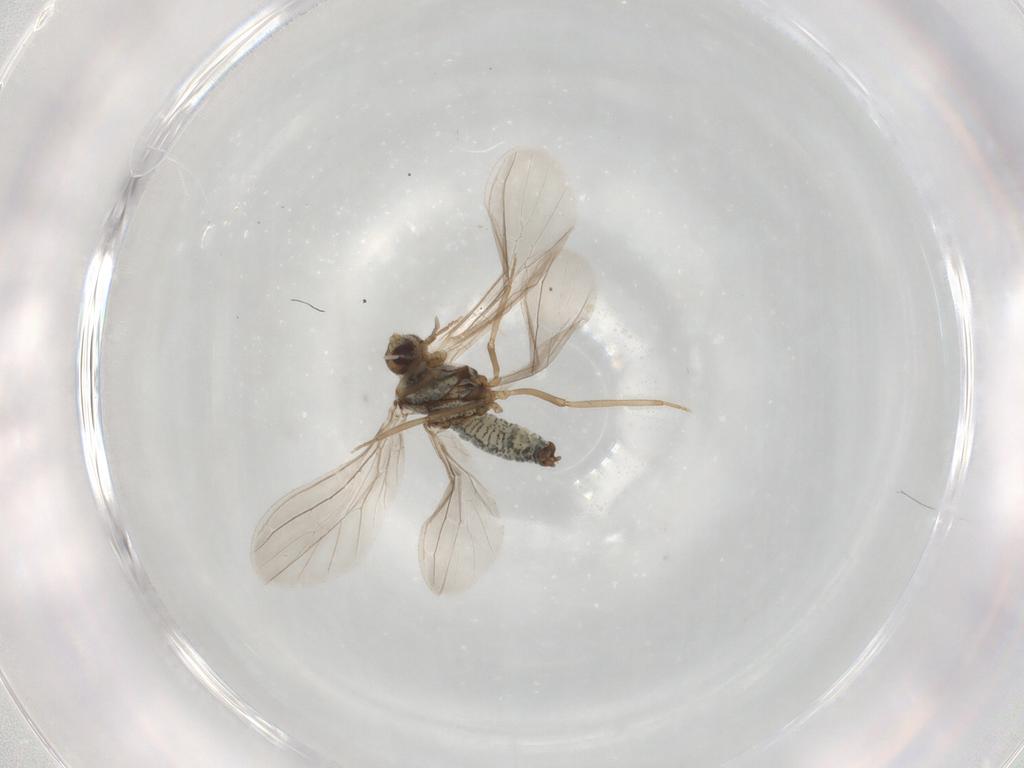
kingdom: Animalia
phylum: Arthropoda
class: Insecta
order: Neuroptera
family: Coniopterygidae
